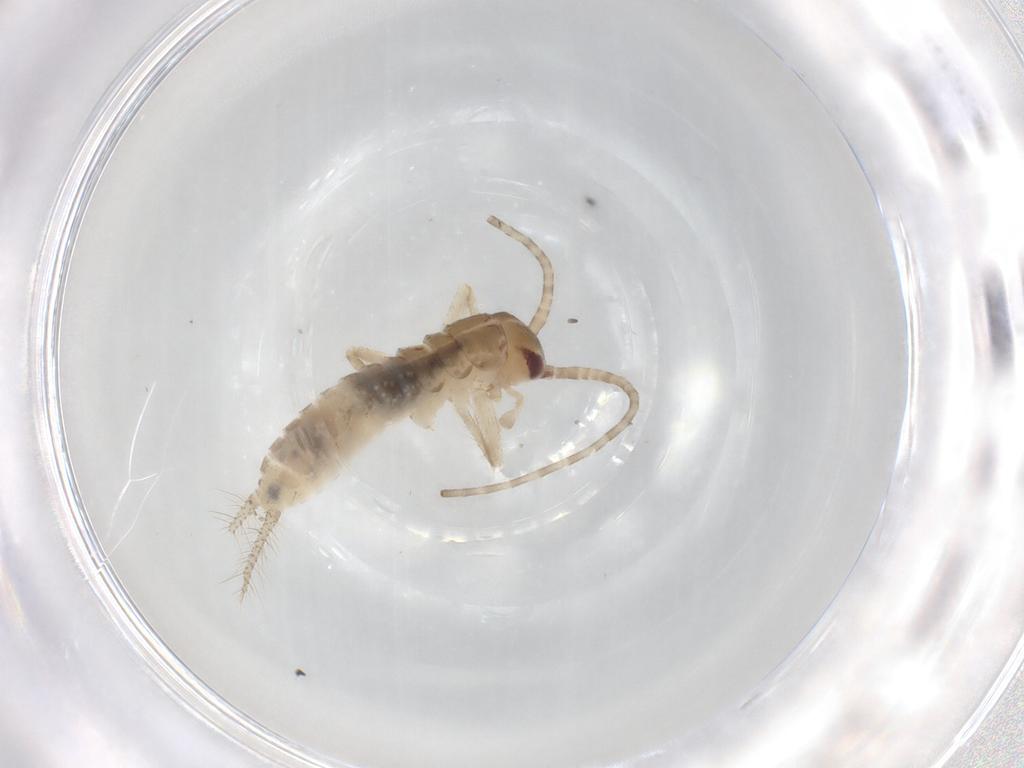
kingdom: Animalia
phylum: Arthropoda
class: Insecta
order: Orthoptera
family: Gryllidae
